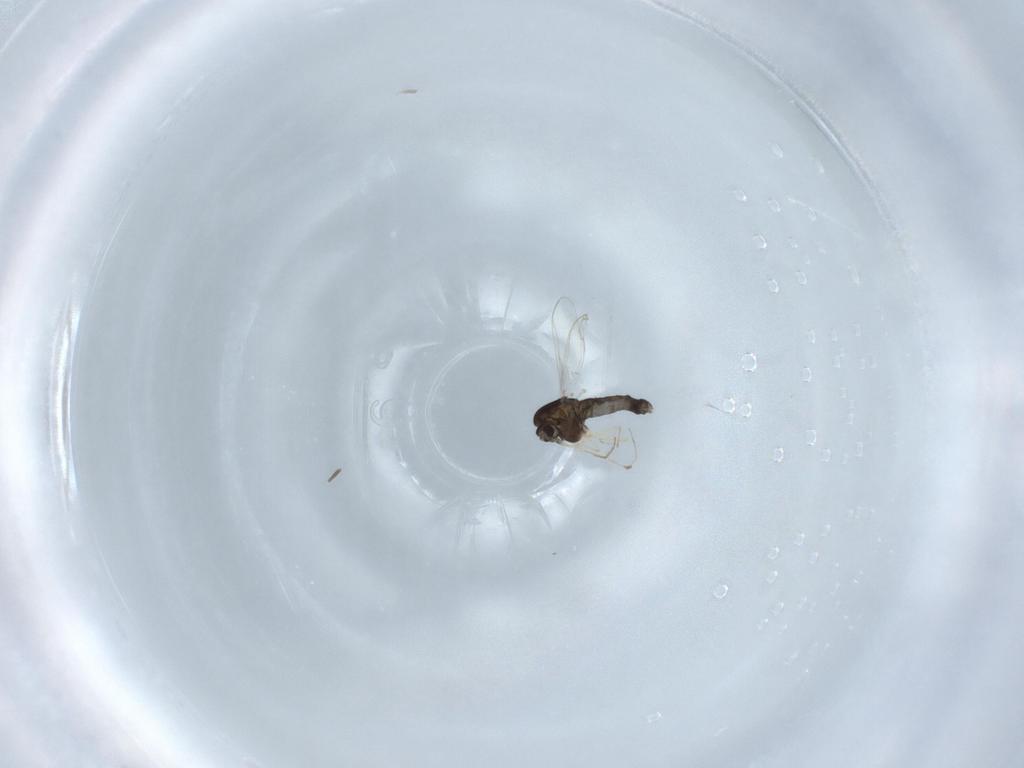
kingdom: Animalia
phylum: Arthropoda
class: Insecta
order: Diptera
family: Chironomidae
